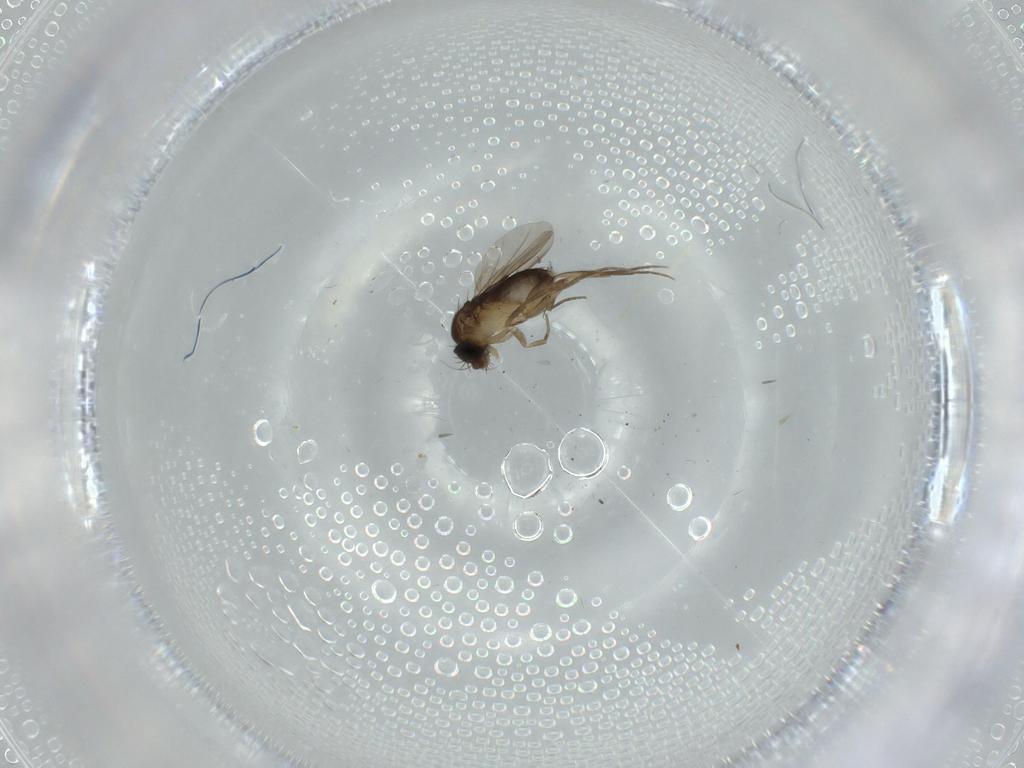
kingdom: Animalia
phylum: Arthropoda
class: Insecta
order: Diptera
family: Phoridae
